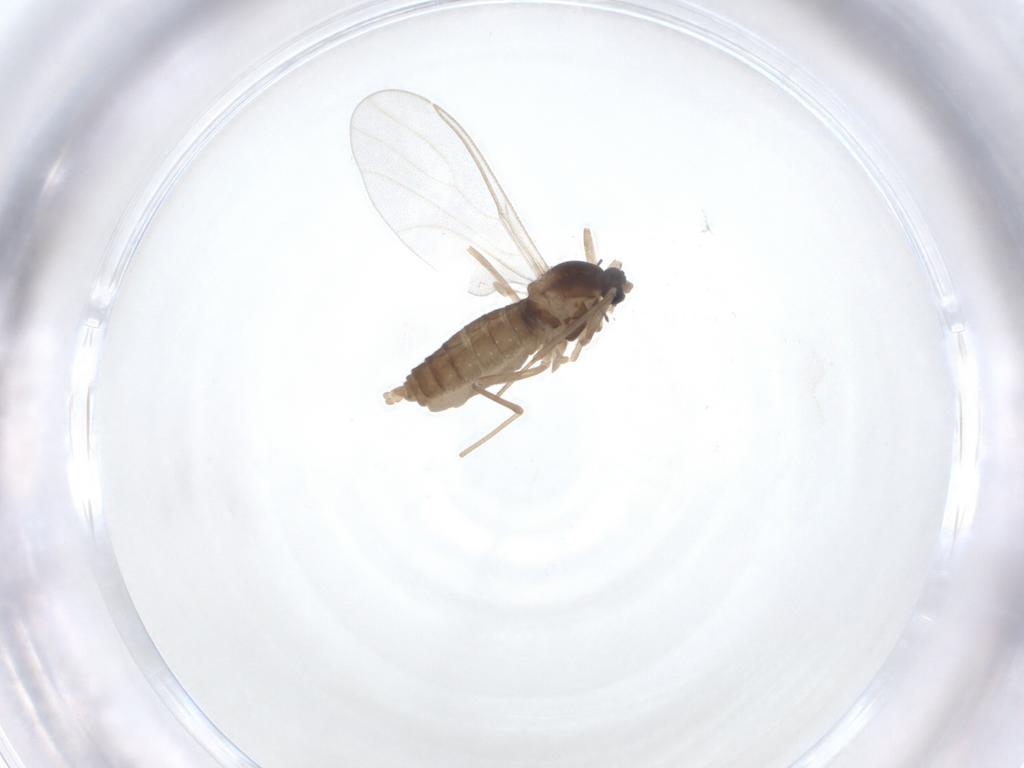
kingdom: Animalia
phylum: Arthropoda
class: Insecta
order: Diptera
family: Cecidomyiidae
